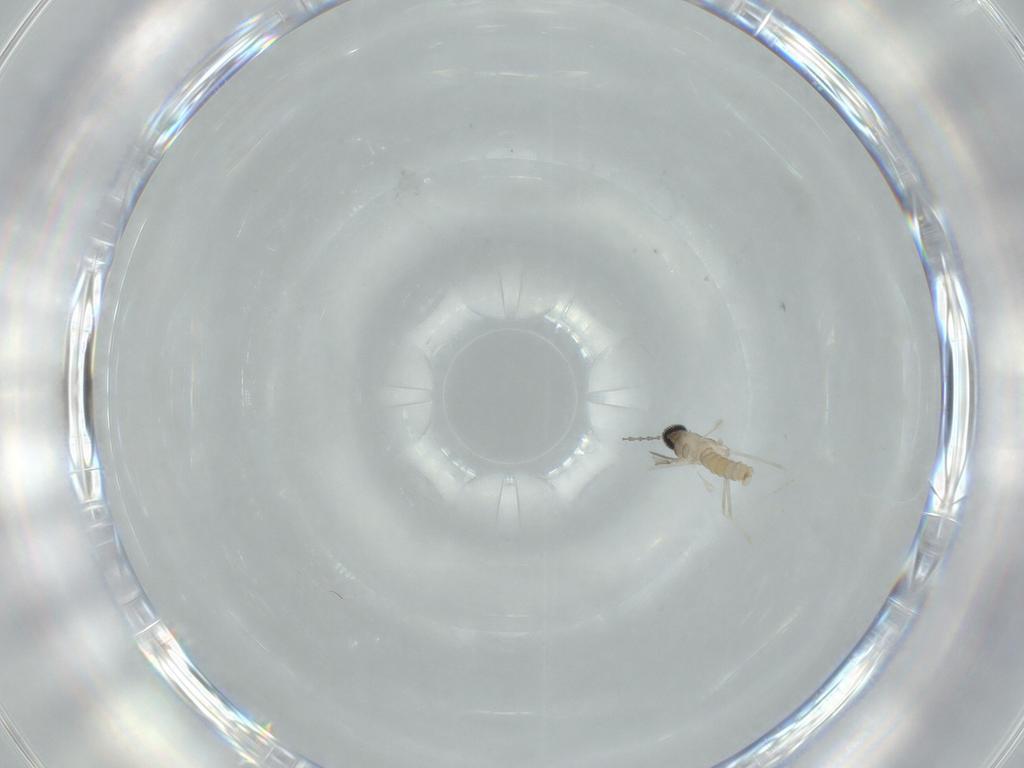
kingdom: Animalia
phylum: Arthropoda
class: Insecta
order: Diptera
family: Cecidomyiidae
